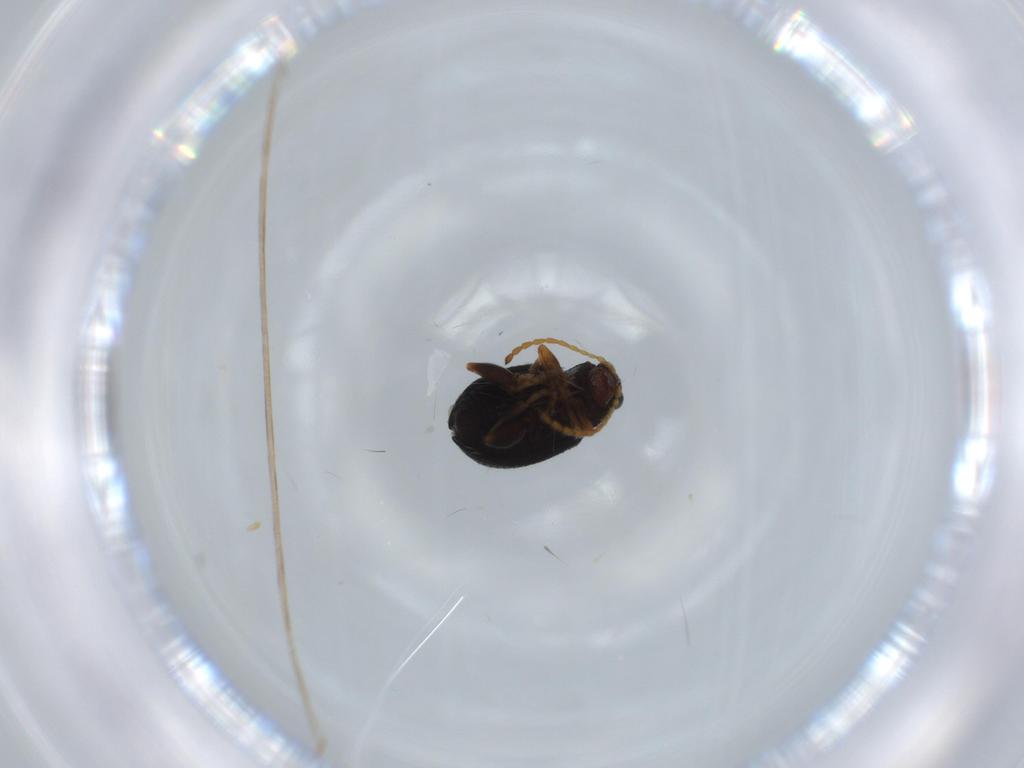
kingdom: Animalia
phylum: Arthropoda
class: Insecta
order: Coleoptera
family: Chrysomelidae
